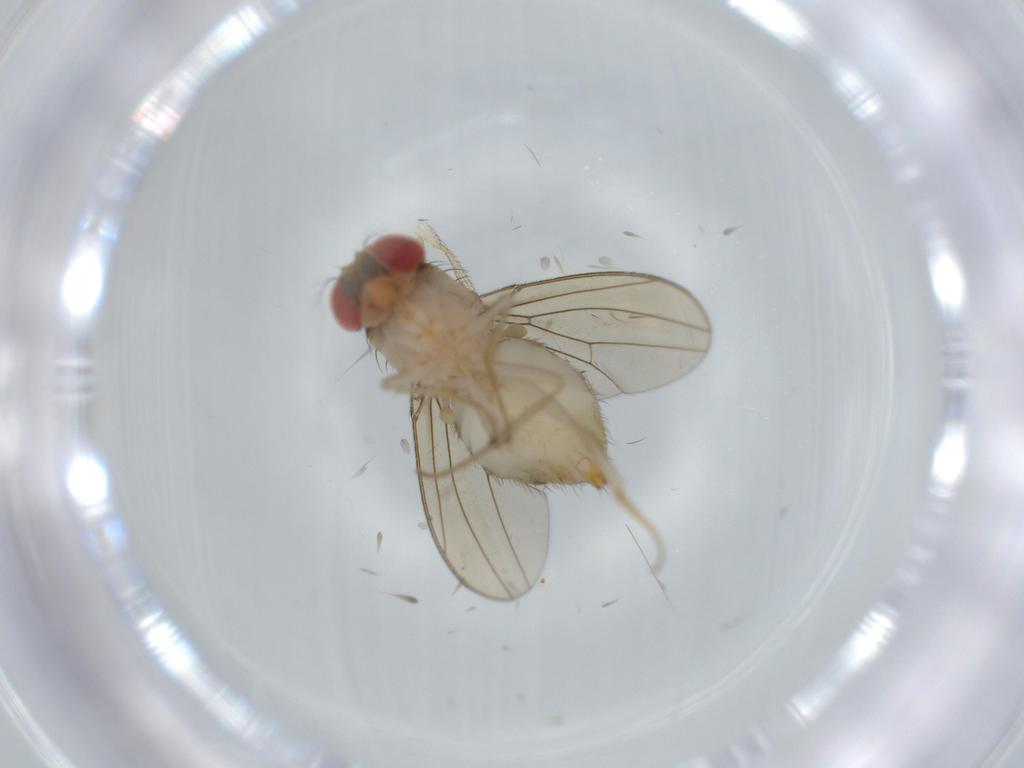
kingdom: Animalia
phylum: Arthropoda
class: Insecta
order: Diptera
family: Drosophilidae
